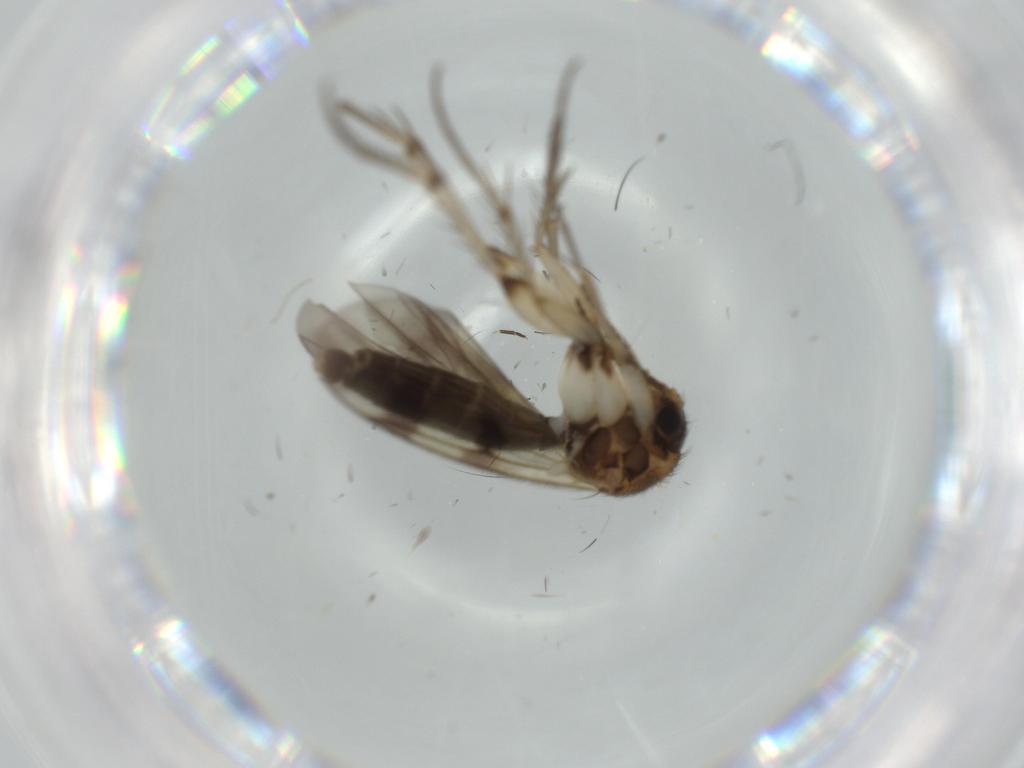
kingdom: Animalia
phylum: Arthropoda
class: Insecta
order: Diptera
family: Mycetophilidae
